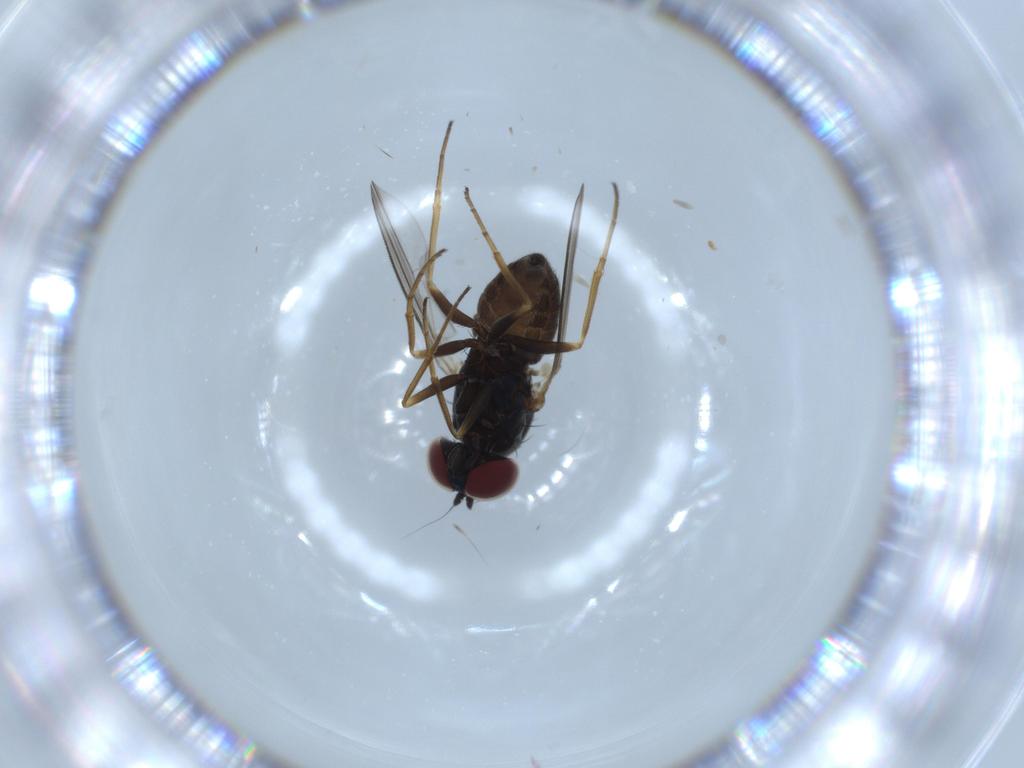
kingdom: Animalia
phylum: Arthropoda
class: Insecta
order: Diptera
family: Dolichopodidae
